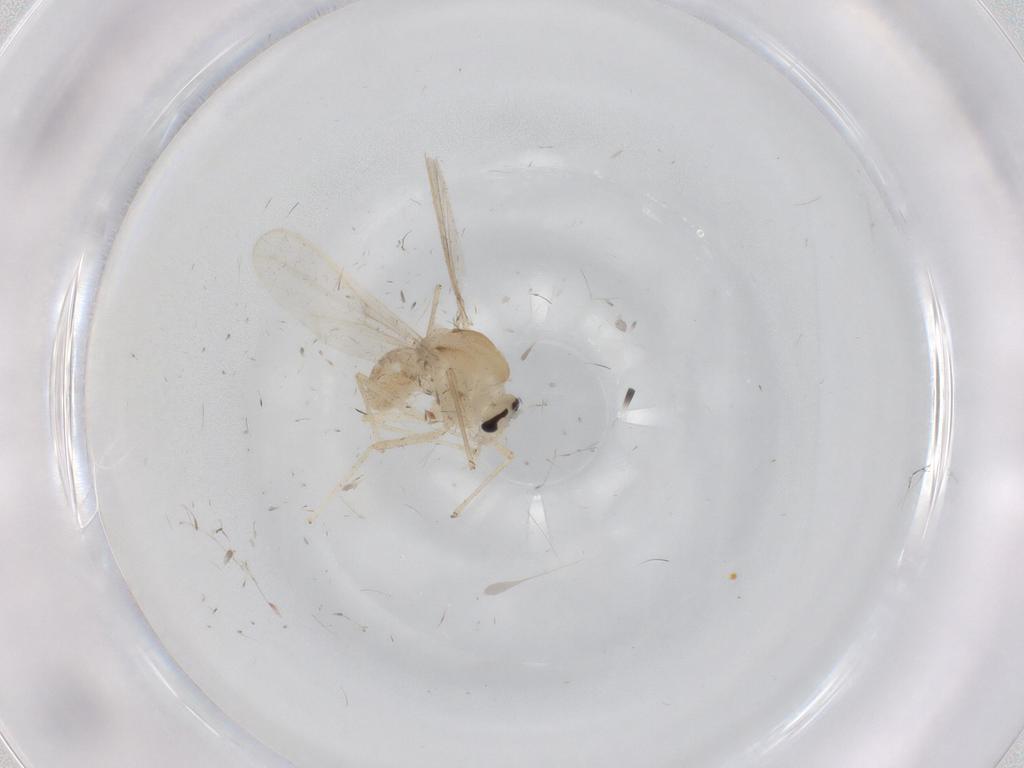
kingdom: Animalia
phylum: Arthropoda
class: Insecta
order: Diptera
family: Chironomidae
